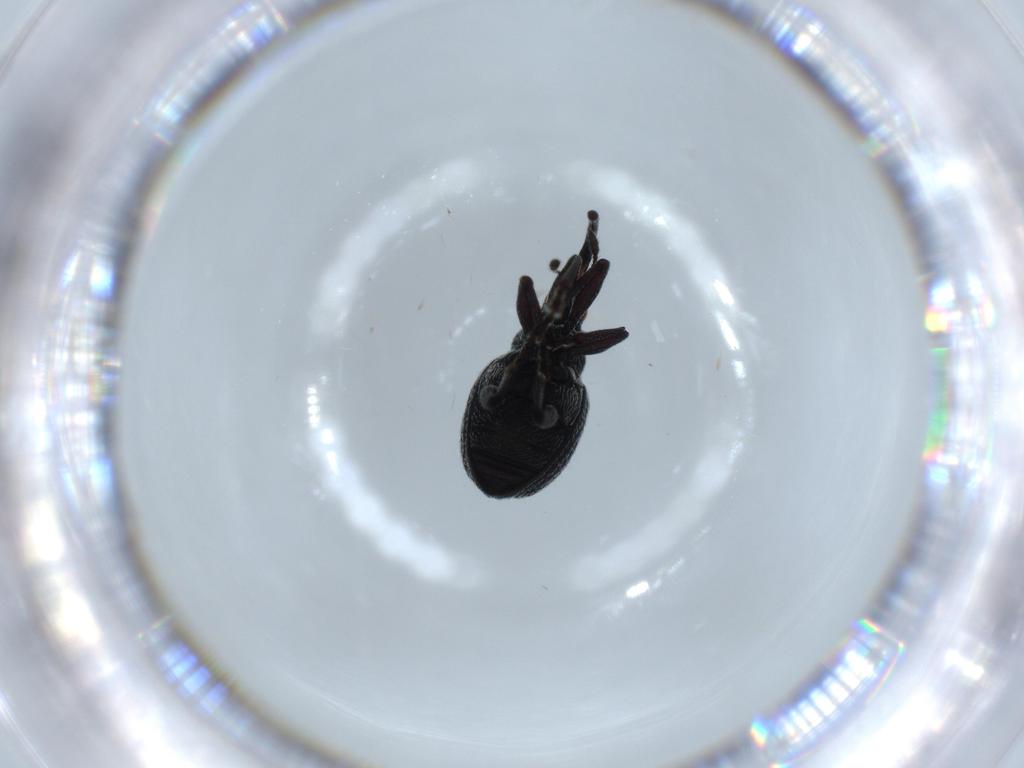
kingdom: Animalia
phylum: Arthropoda
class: Insecta
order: Coleoptera
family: Brentidae
